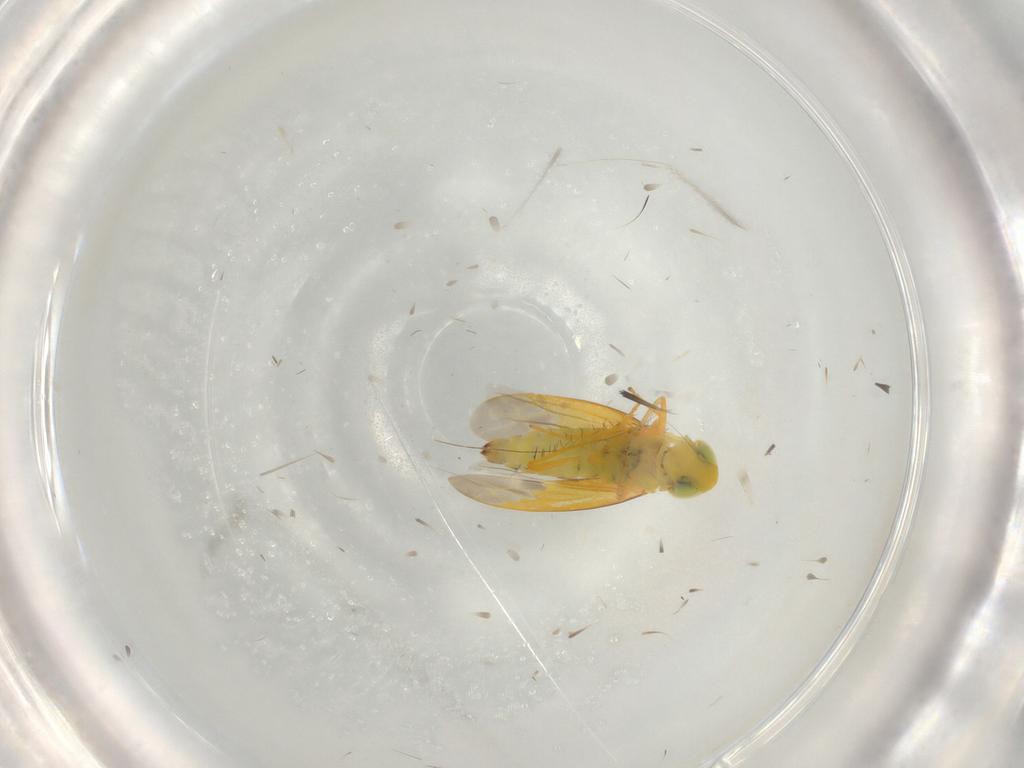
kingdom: Animalia
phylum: Arthropoda
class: Insecta
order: Hemiptera
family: Cicadellidae
